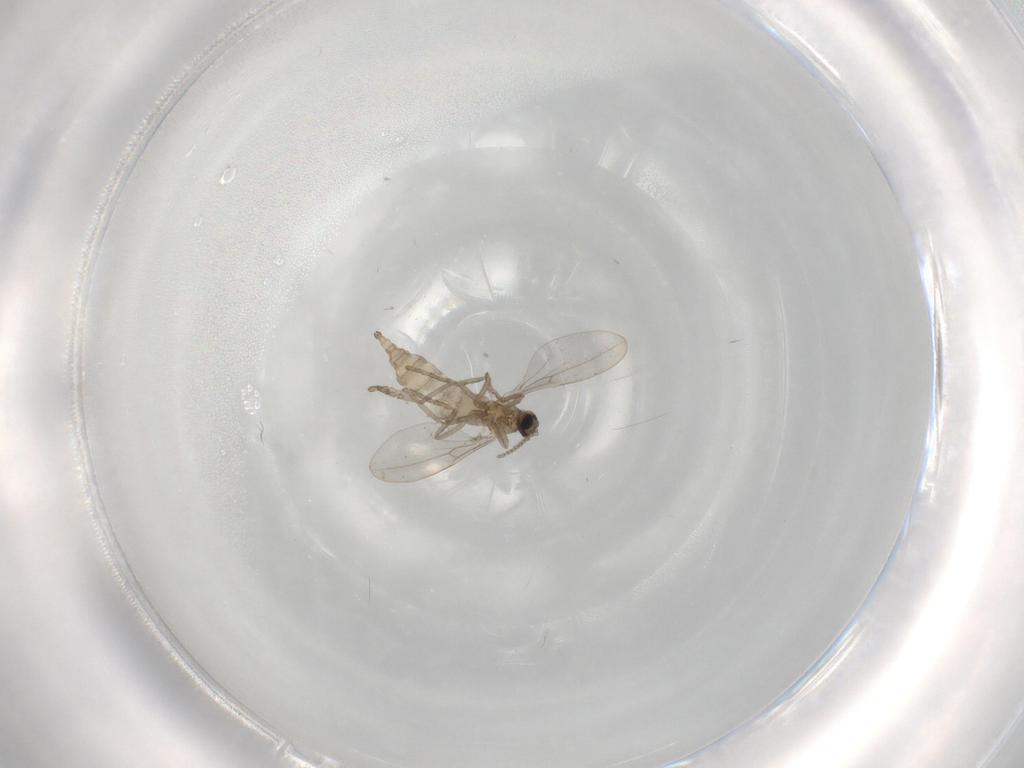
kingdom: Animalia
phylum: Arthropoda
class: Insecta
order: Diptera
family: Cecidomyiidae
